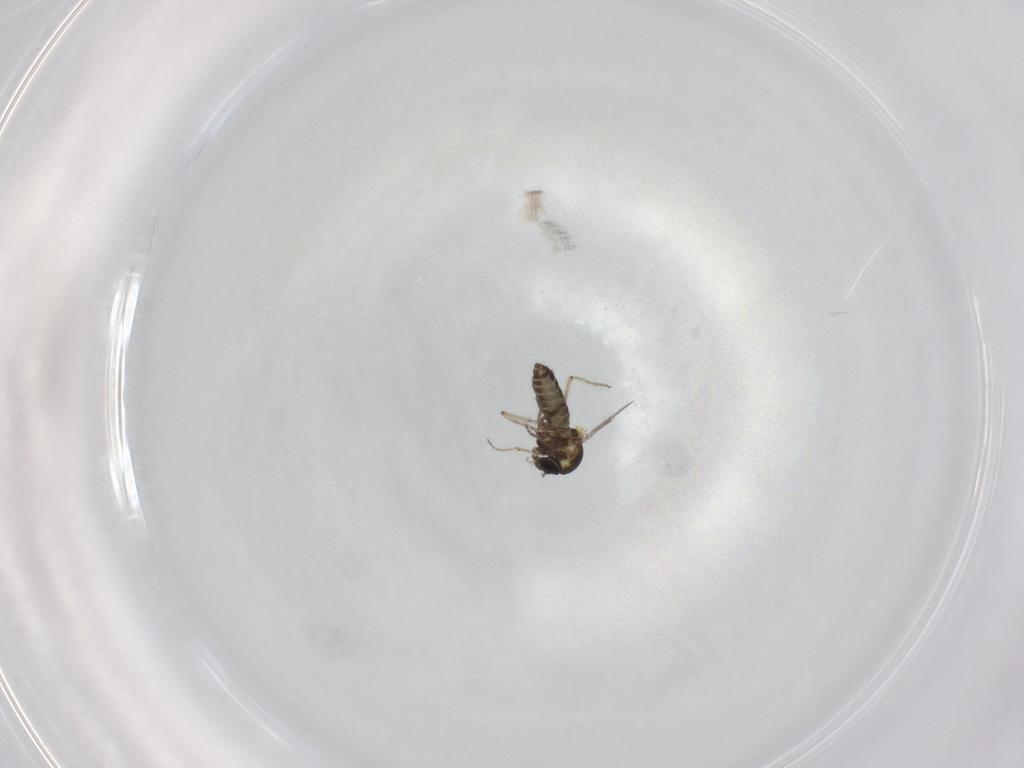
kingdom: Animalia
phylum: Arthropoda
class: Insecta
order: Diptera
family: Ceratopogonidae
